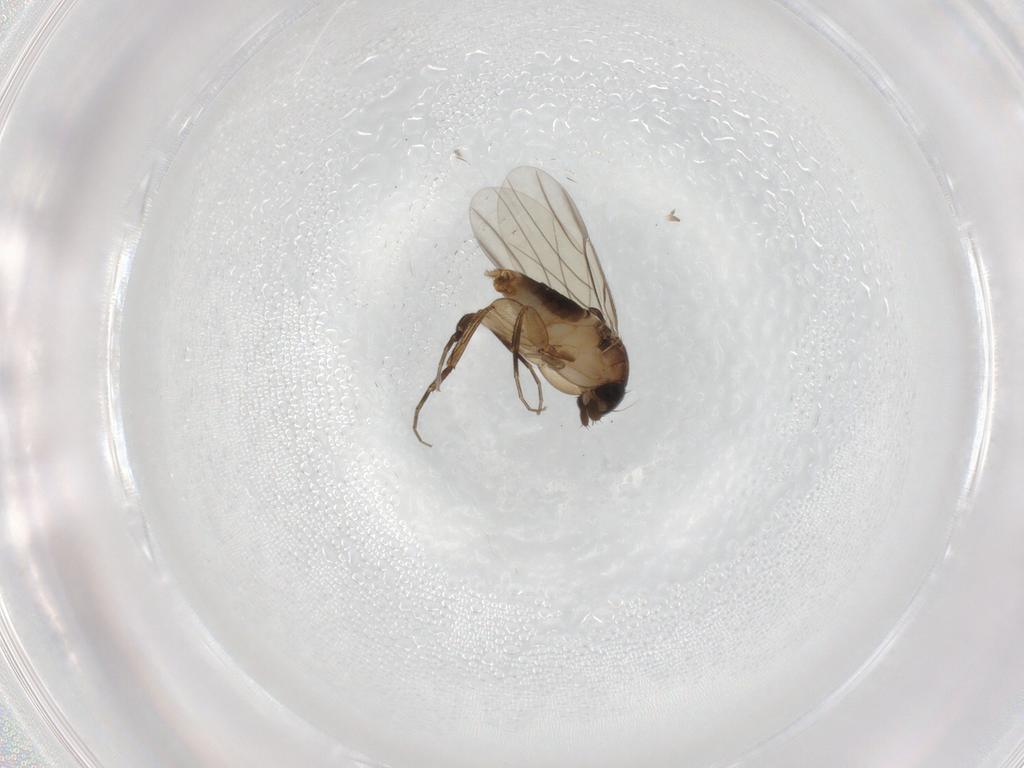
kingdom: Animalia
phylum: Arthropoda
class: Insecta
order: Diptera
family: Phoridae
